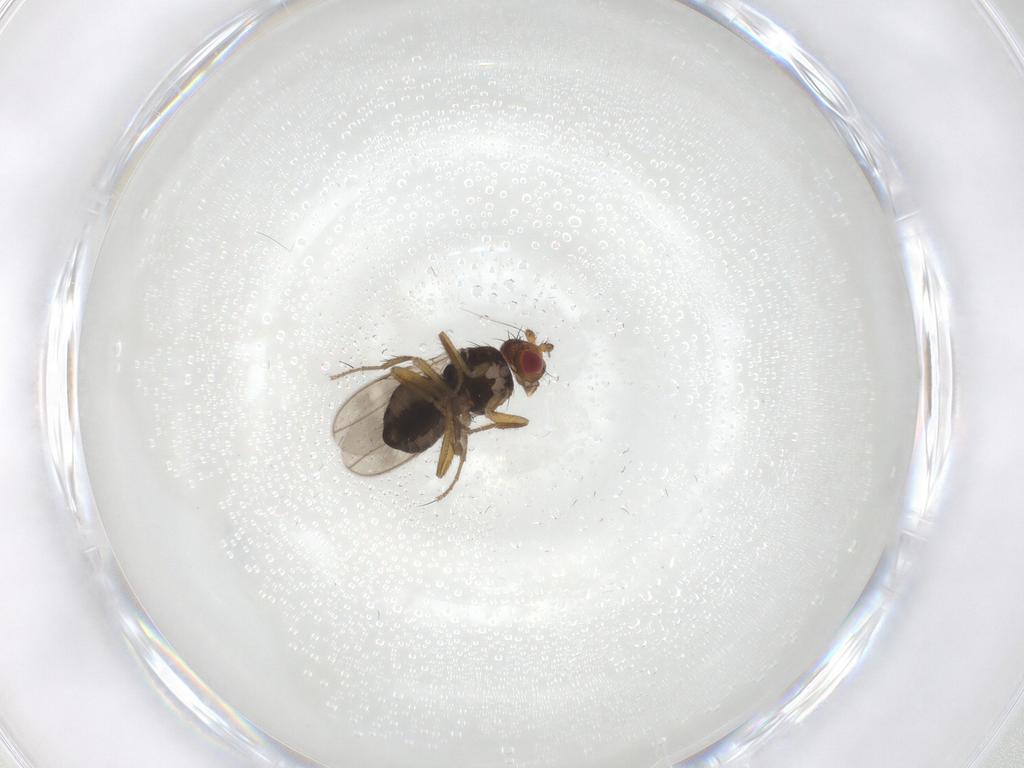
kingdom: Animalia
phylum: Arthropoda
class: Insecta
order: Diptera
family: Sphaeroceridae
